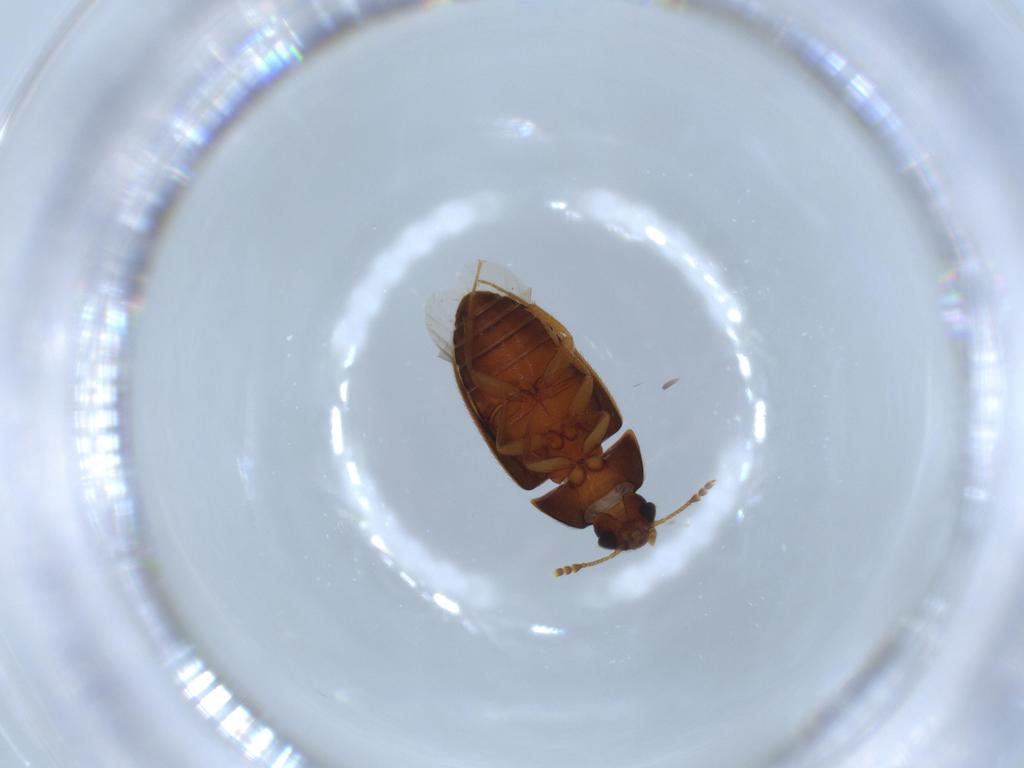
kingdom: Animalia
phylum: Arthropoda
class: Insecta
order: Coleoptera
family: Mycetophagidae
